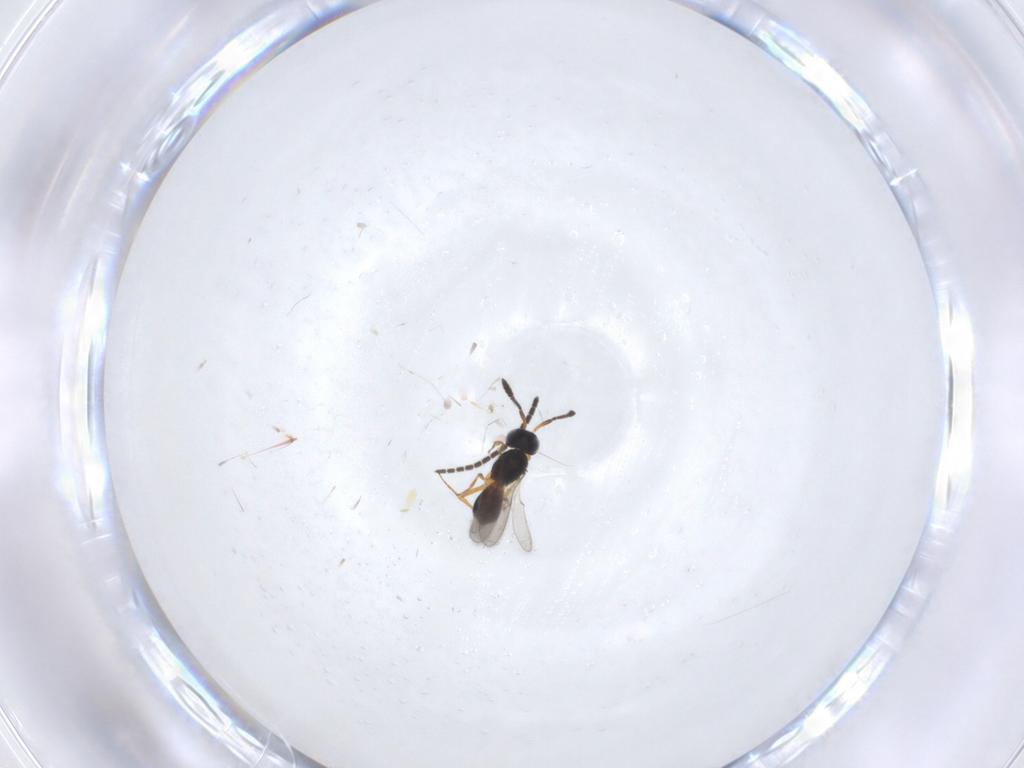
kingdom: Animalia
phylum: Arthropoda
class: Insecta
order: Hymenoptera
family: Scelionidae
